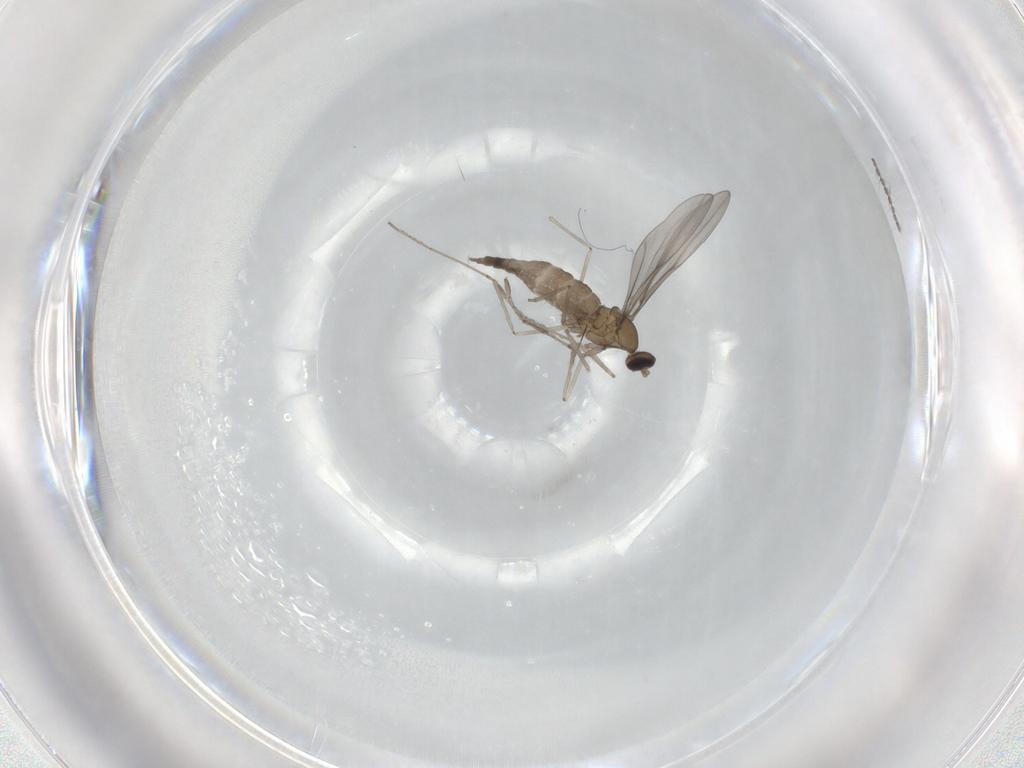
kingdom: Animalia
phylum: Arthropoda
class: Insecta
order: Diptera
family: Cecidomyiidae
